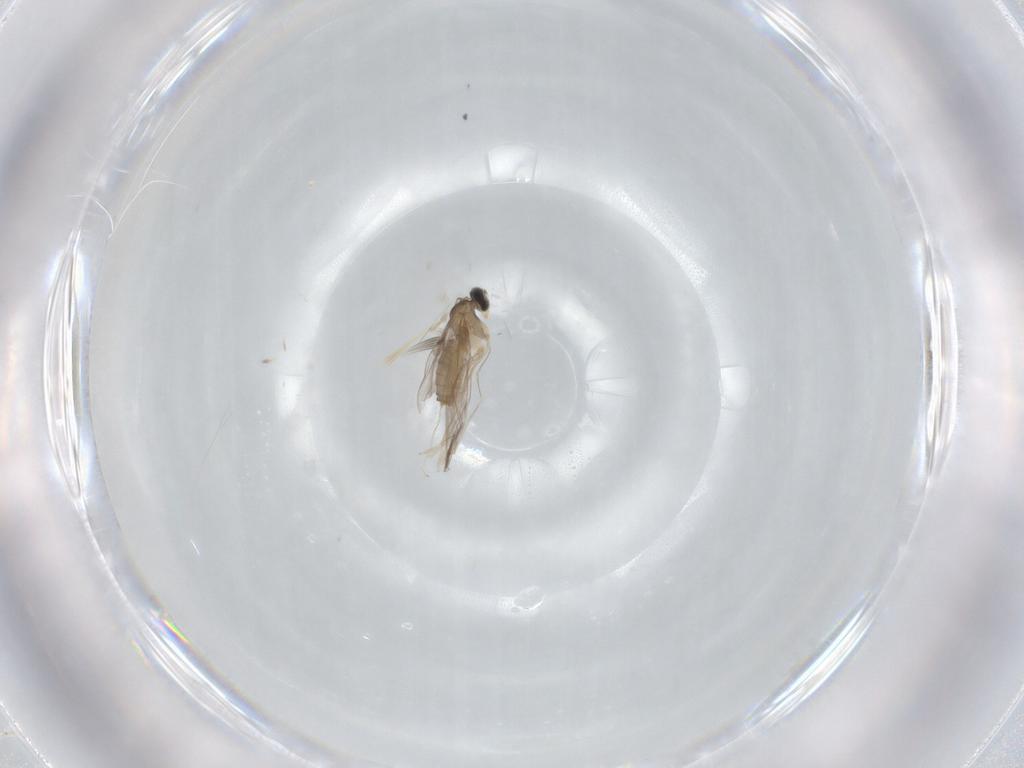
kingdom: Animalia
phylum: Arthropoda
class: Insecta
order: Diptera
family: Cecidomyiidae
